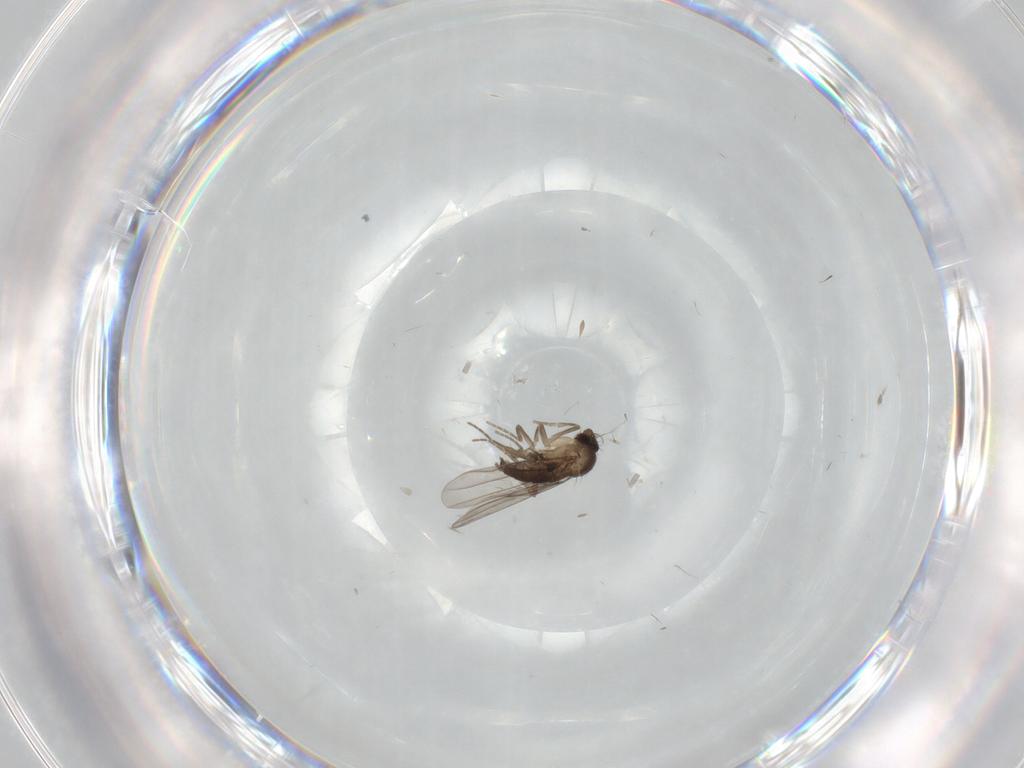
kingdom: Animalia
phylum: Arthropoda
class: Insecta
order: Diptera
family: Phoridae
